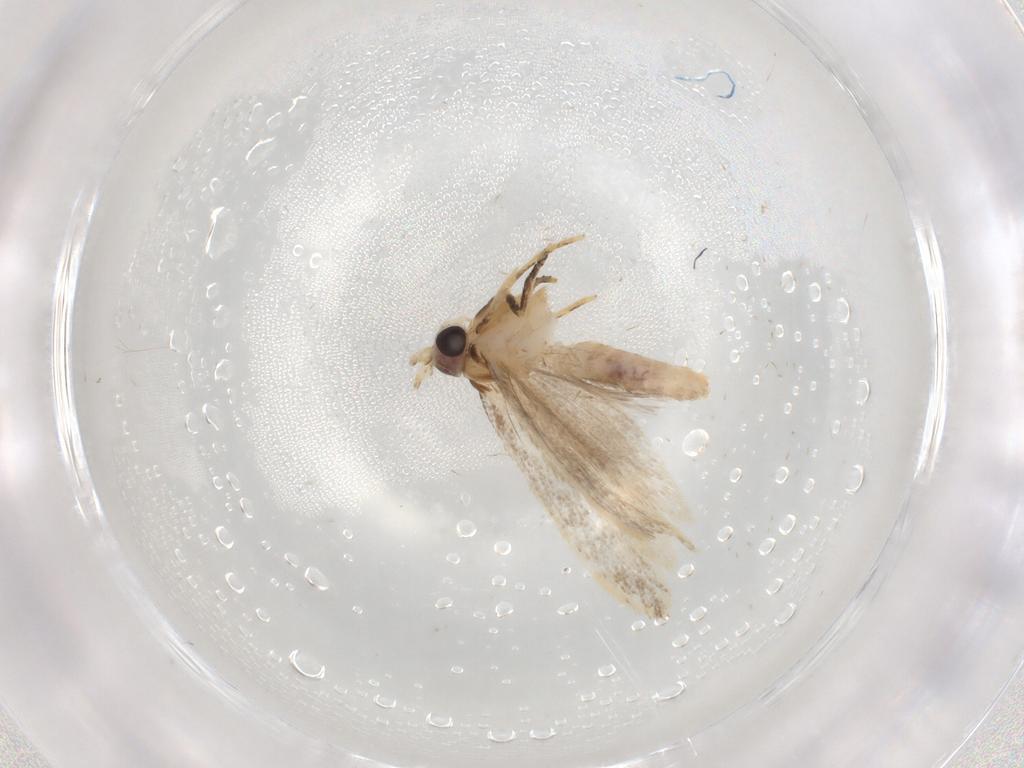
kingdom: Animalia
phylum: Arthropoda
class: Insecta
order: Lepidoptera
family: Nepticulidae
